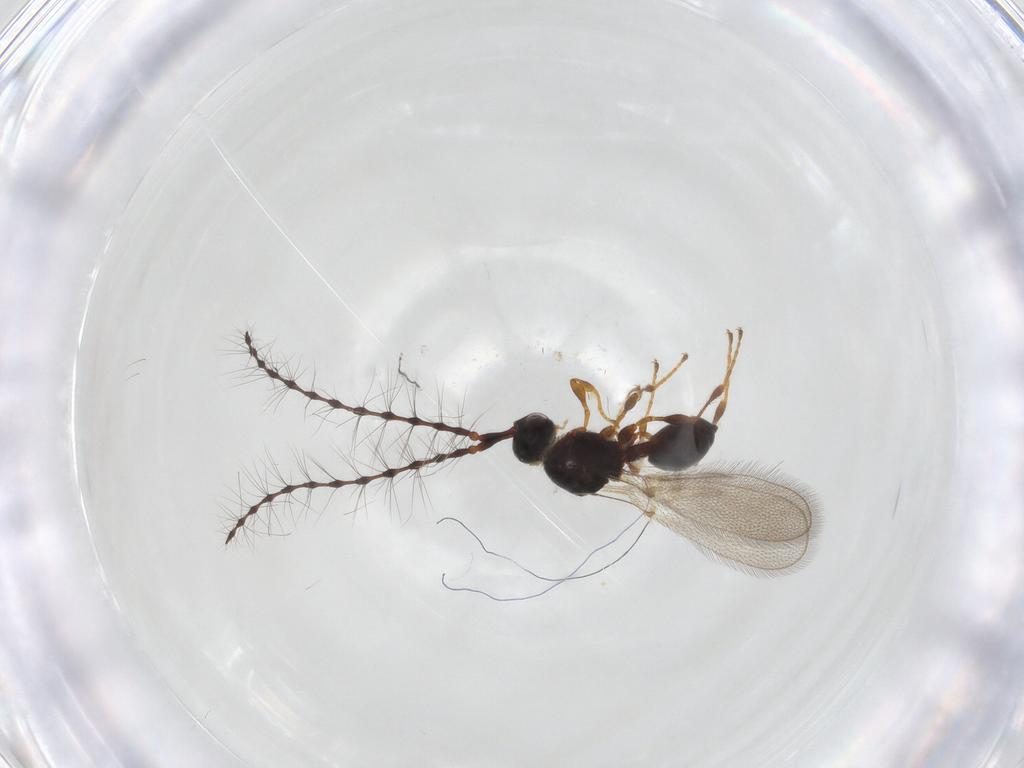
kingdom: Animalia
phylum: Arthropoda
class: Insecta
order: Hymenoptera
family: Diapriidae
